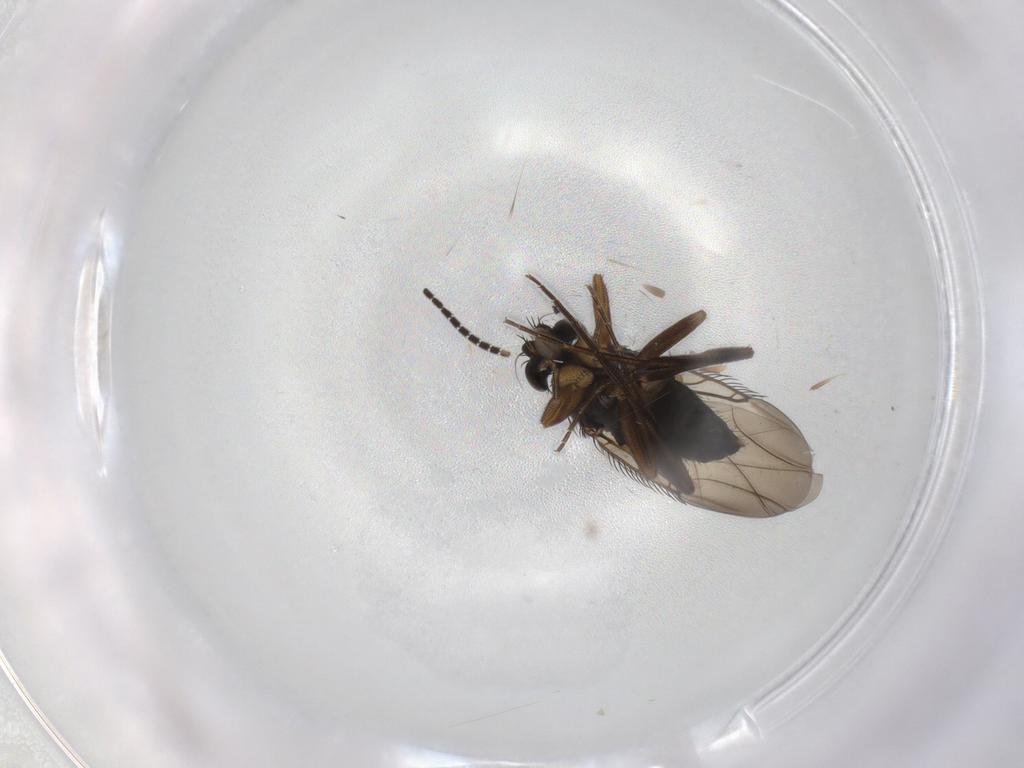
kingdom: Animalia
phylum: Arthropoda
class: Insecta
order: Diptera
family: Phoridae
